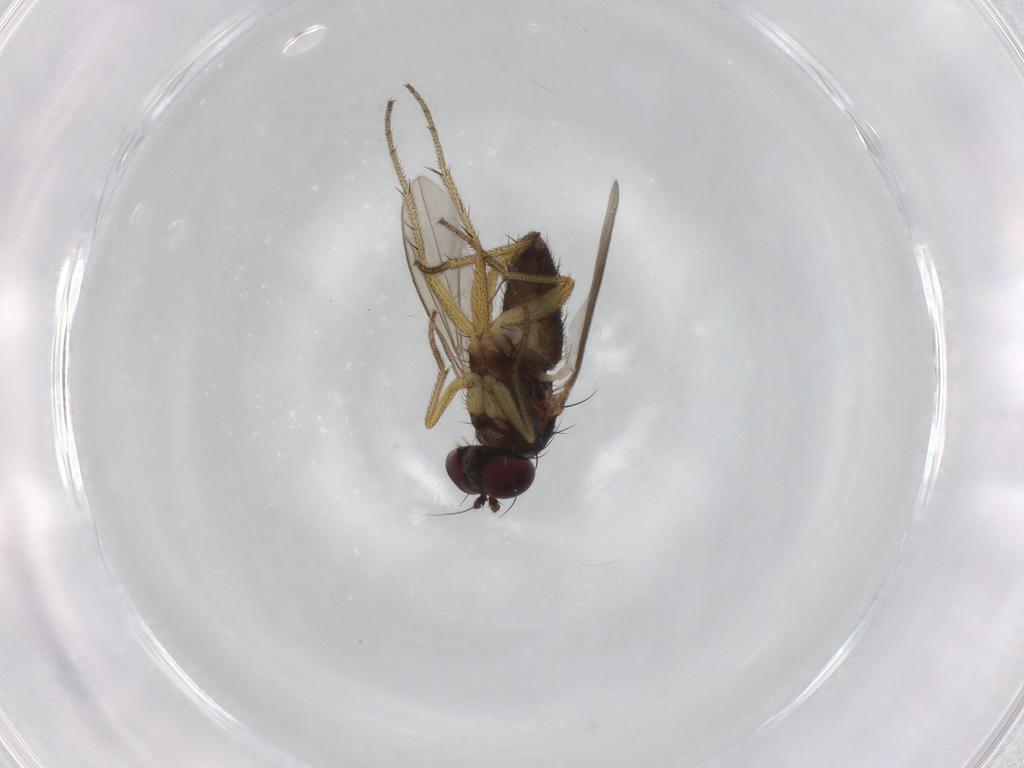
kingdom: Animalia
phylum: Arthropoda
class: Insecta
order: Diptera
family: Dolichopodidae
